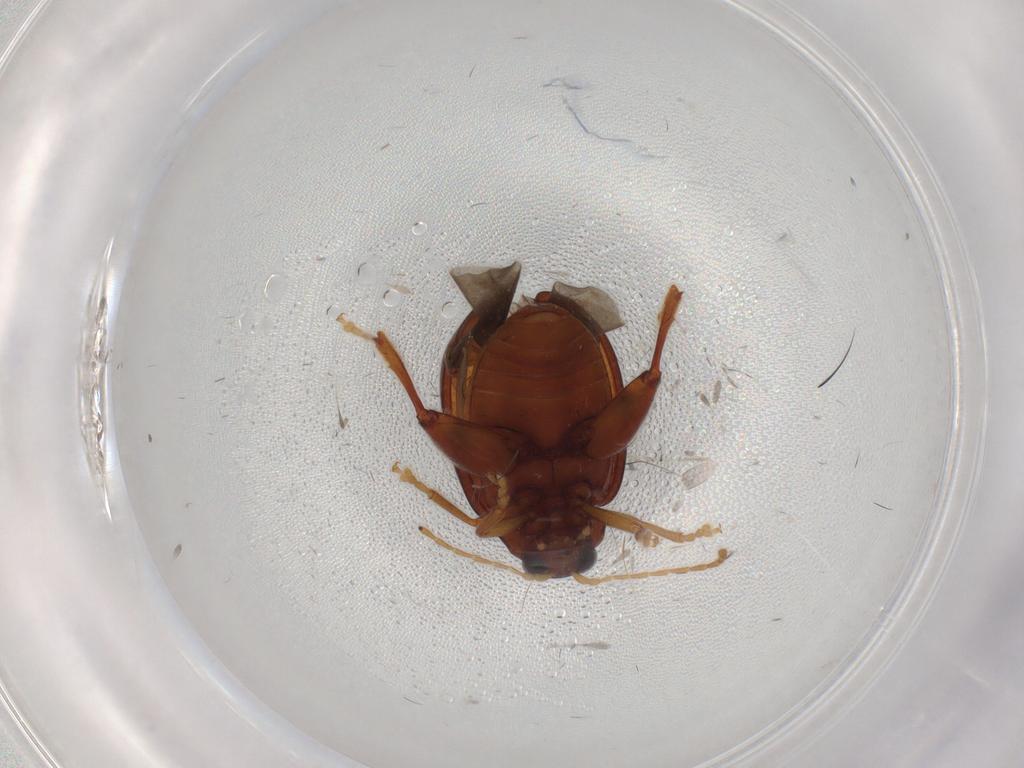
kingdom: Animalia
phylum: Arthropoda
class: Insecta
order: Coleoptera
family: Chrysomelidae
